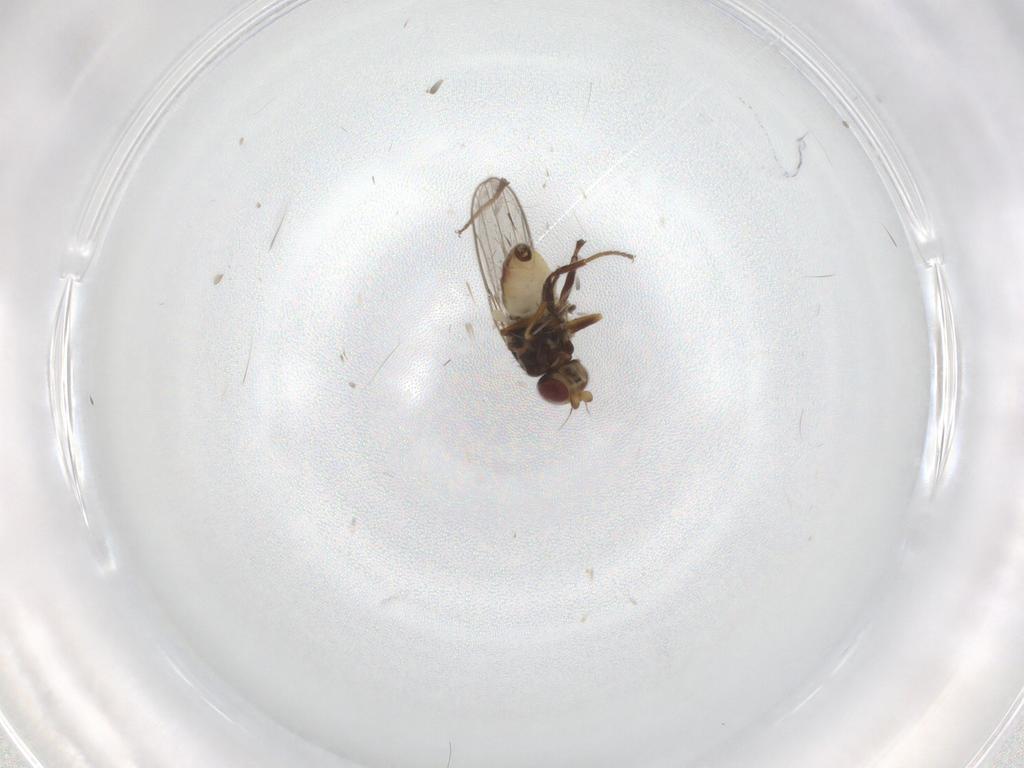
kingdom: Animalia
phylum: Arthropoda
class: Insecta
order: Diptera
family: Chloropidae
